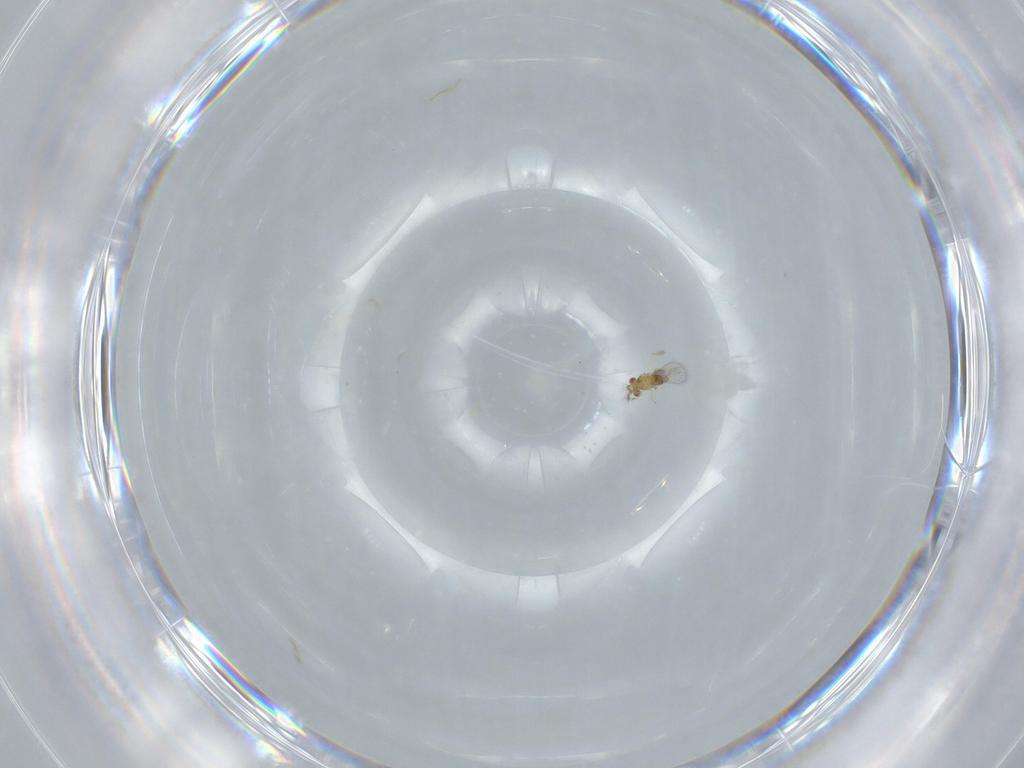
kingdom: Animalia
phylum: Arthropoda
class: Insecta
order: Hymenoptera
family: Trichogrammatidae
